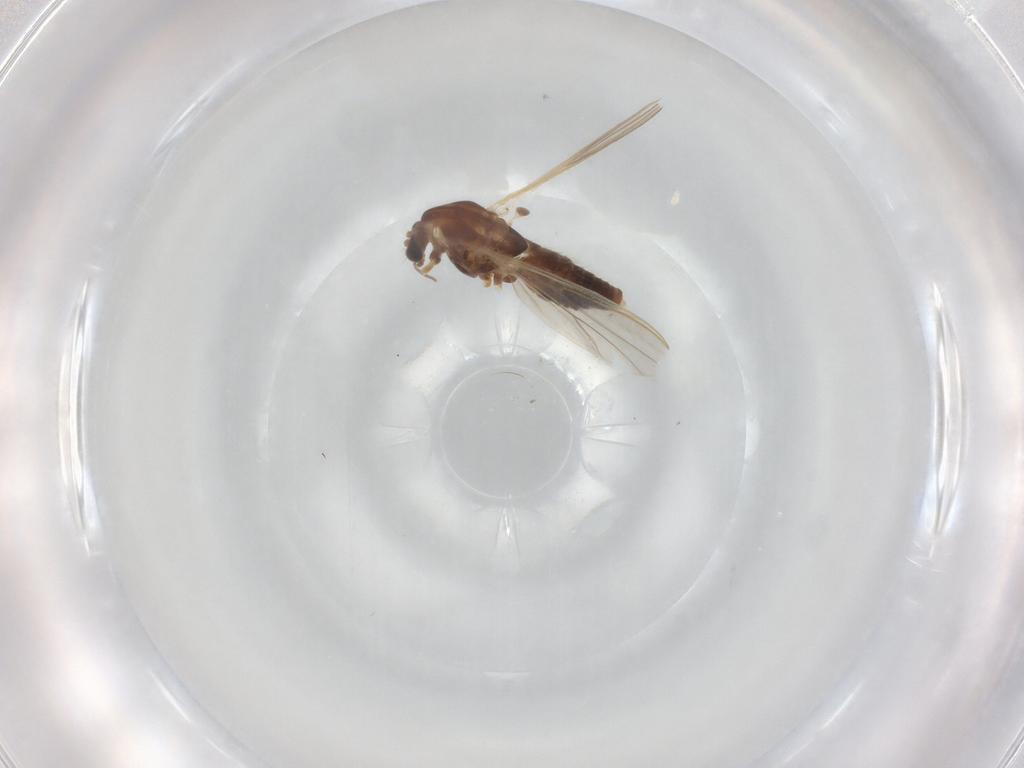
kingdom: Animalia
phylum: Arthropoda
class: Insecta
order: Diptera
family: Chironomidae
